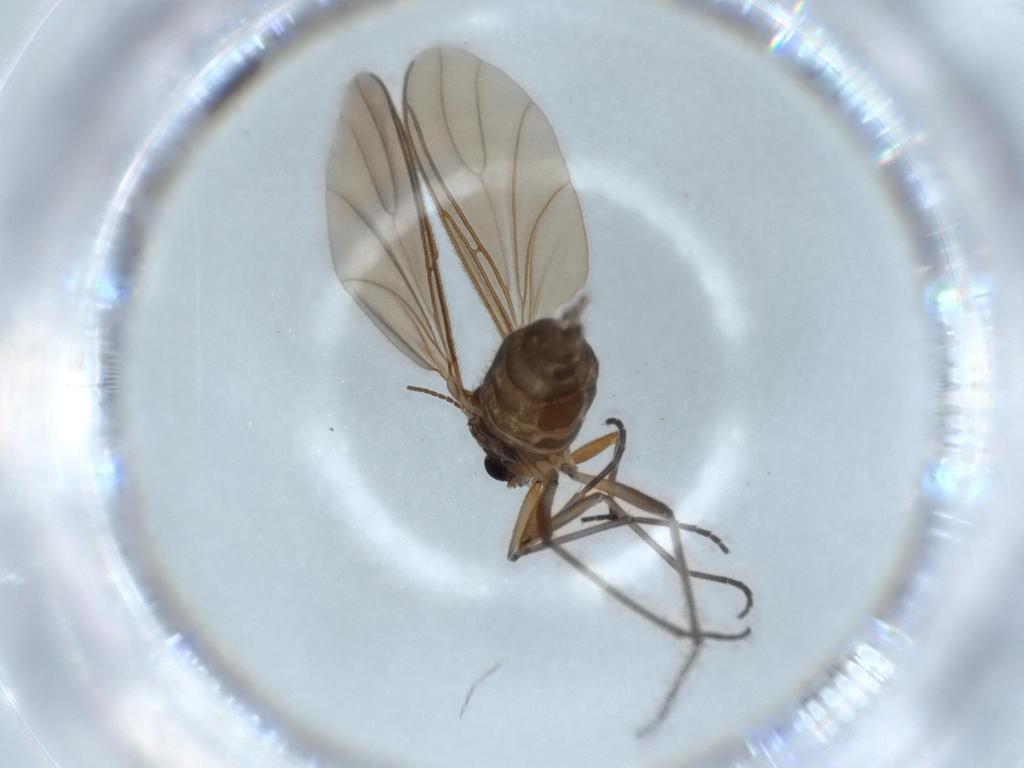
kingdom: Animalia
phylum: Arthropoda
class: Insecta
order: Diptera
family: Sciaridae
